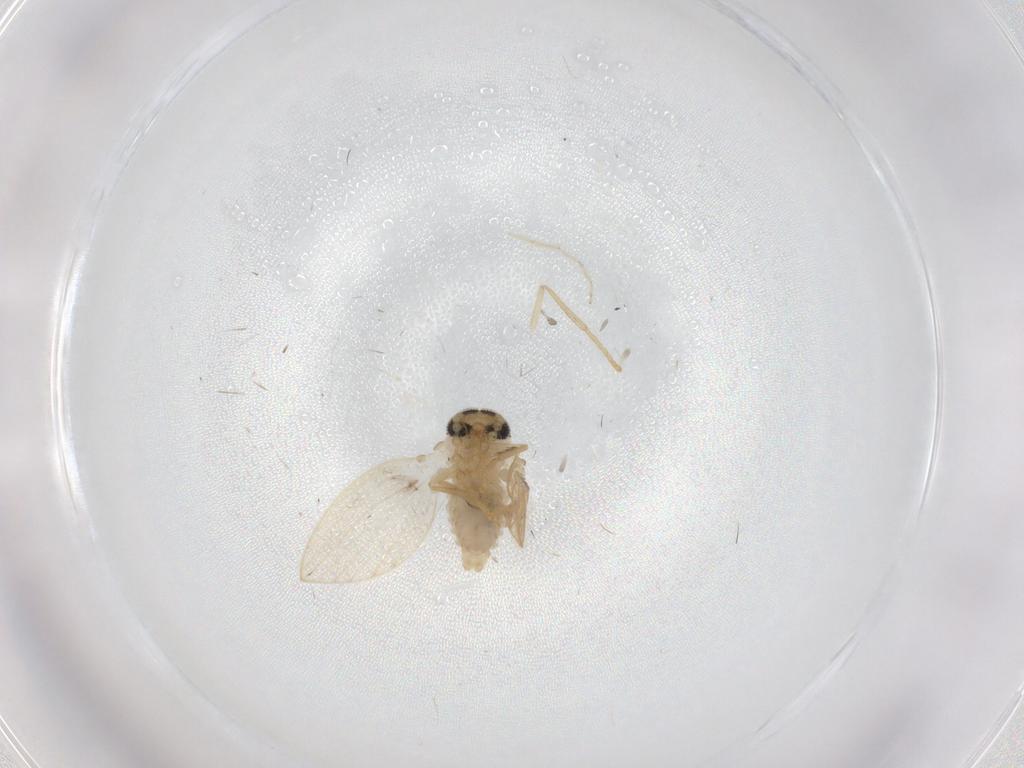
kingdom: Animalia
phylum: Arthropoda
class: Insecta
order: Diptera
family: Psychodidae
